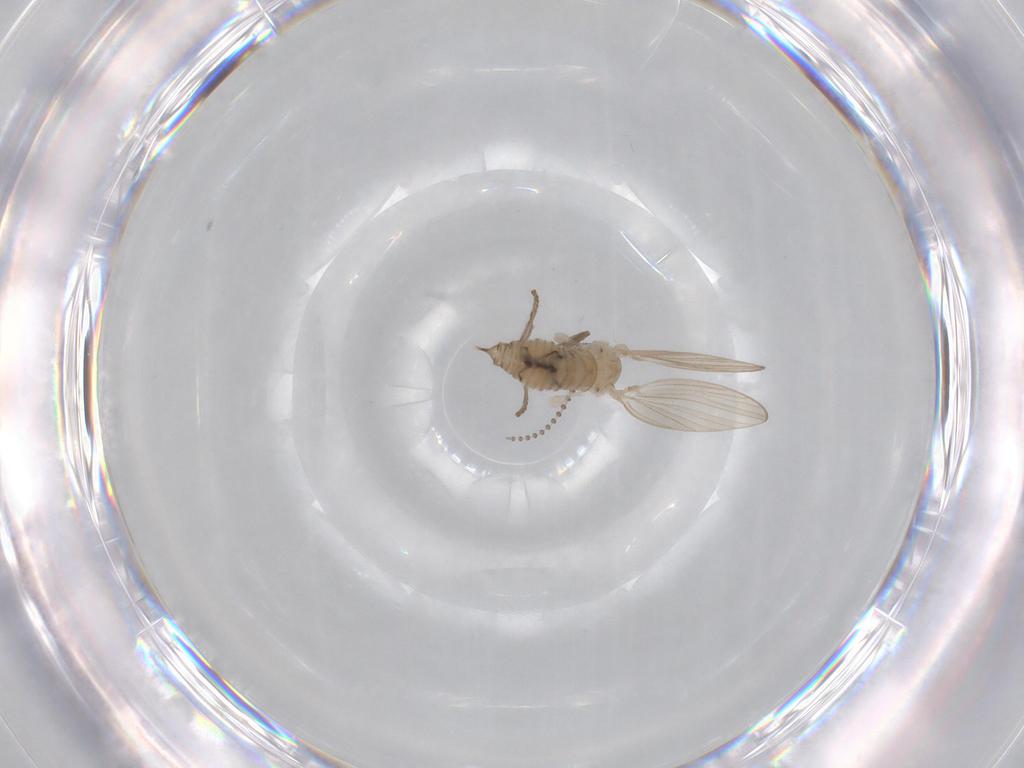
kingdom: Animalia
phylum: Arthropoda
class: Insecta
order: Diptera
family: Psychodidae
